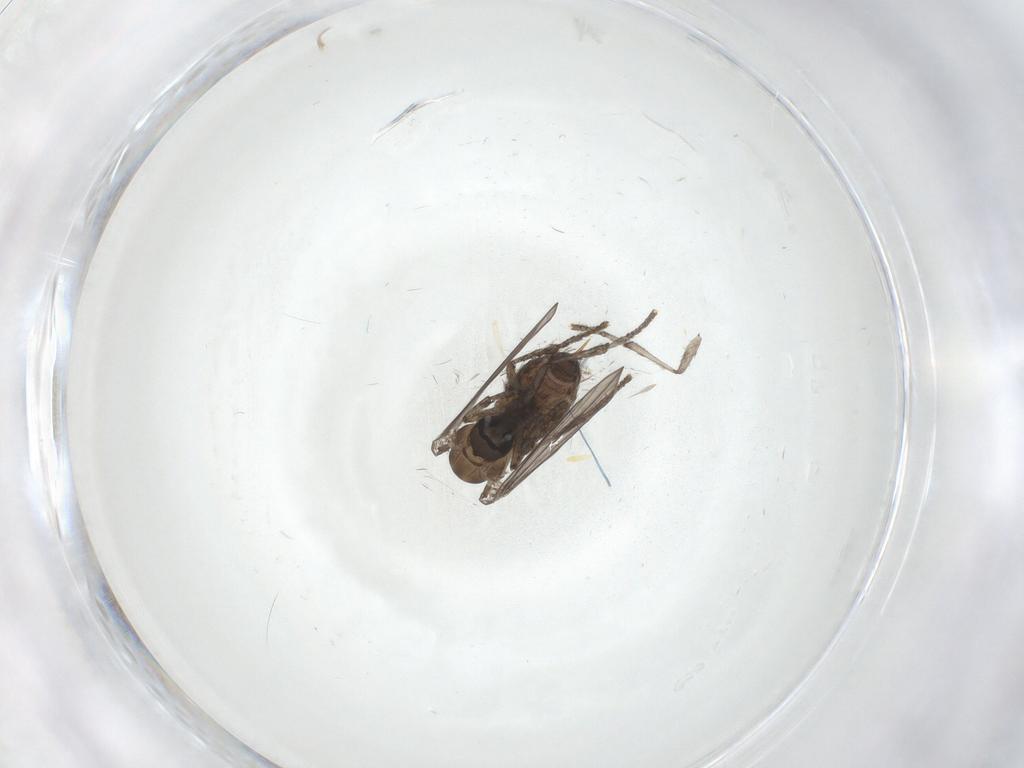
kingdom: Animalia
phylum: Arthropoda
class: Insecta
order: Diptera
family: Psychodidae
